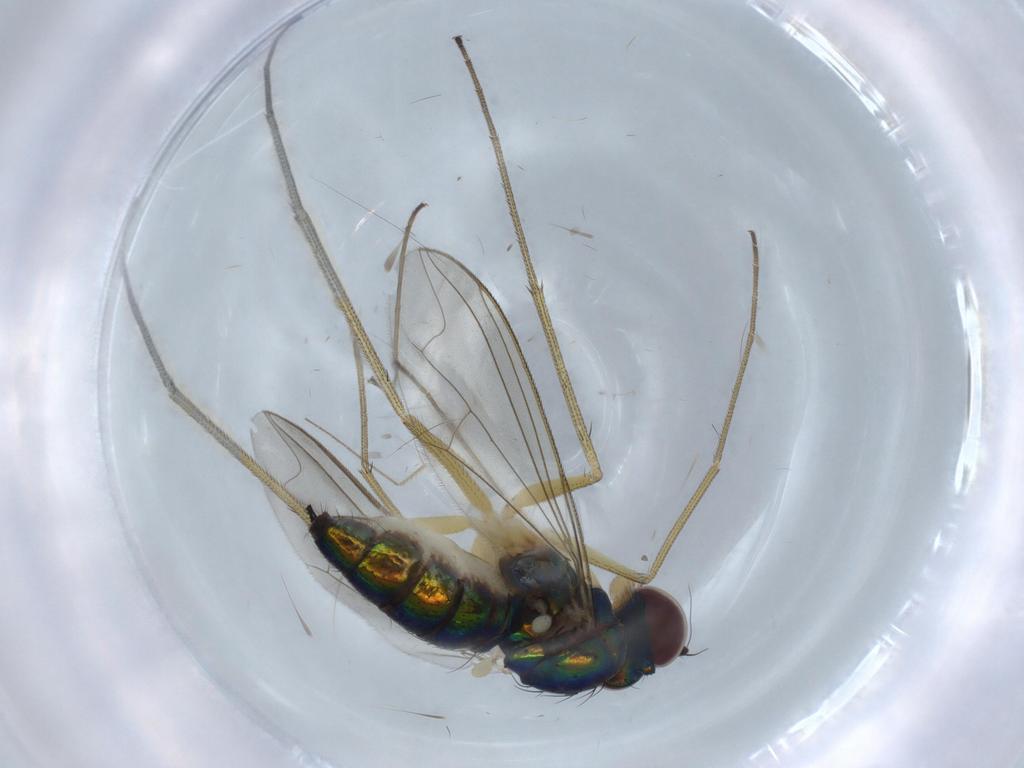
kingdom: Animalia
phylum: Arthropoda
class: Insecta
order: Diptera
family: Dolichopodidae
